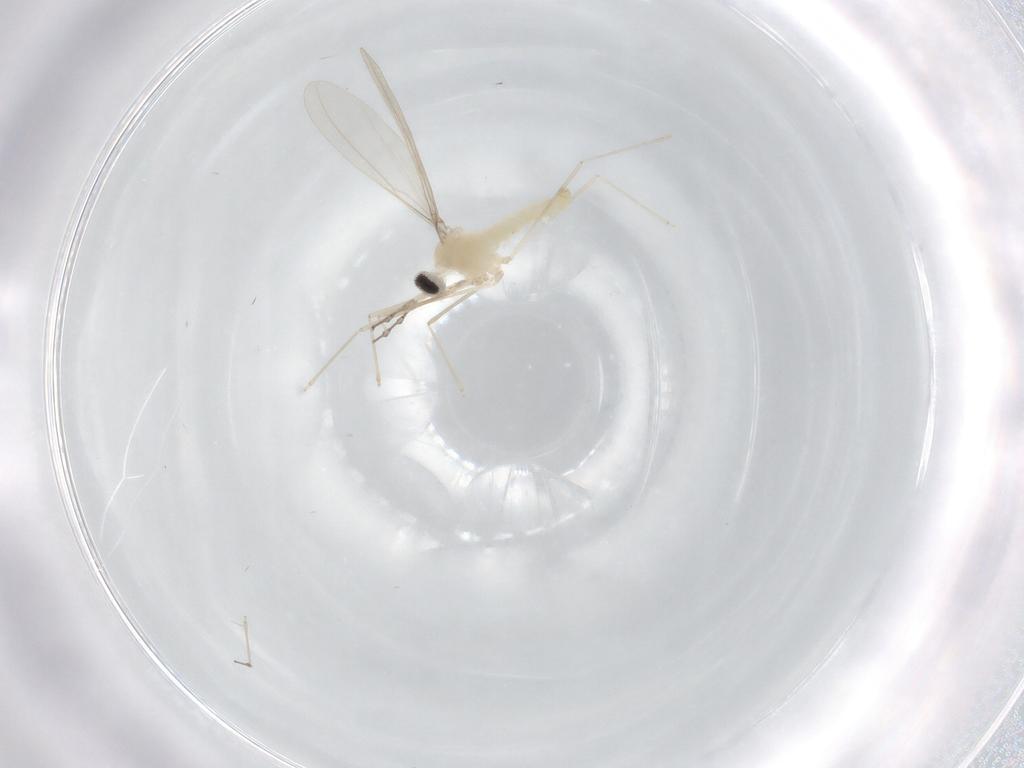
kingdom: Animalia
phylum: Arthropoda
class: Insecta
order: Diptera
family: Cecidomyiidae
